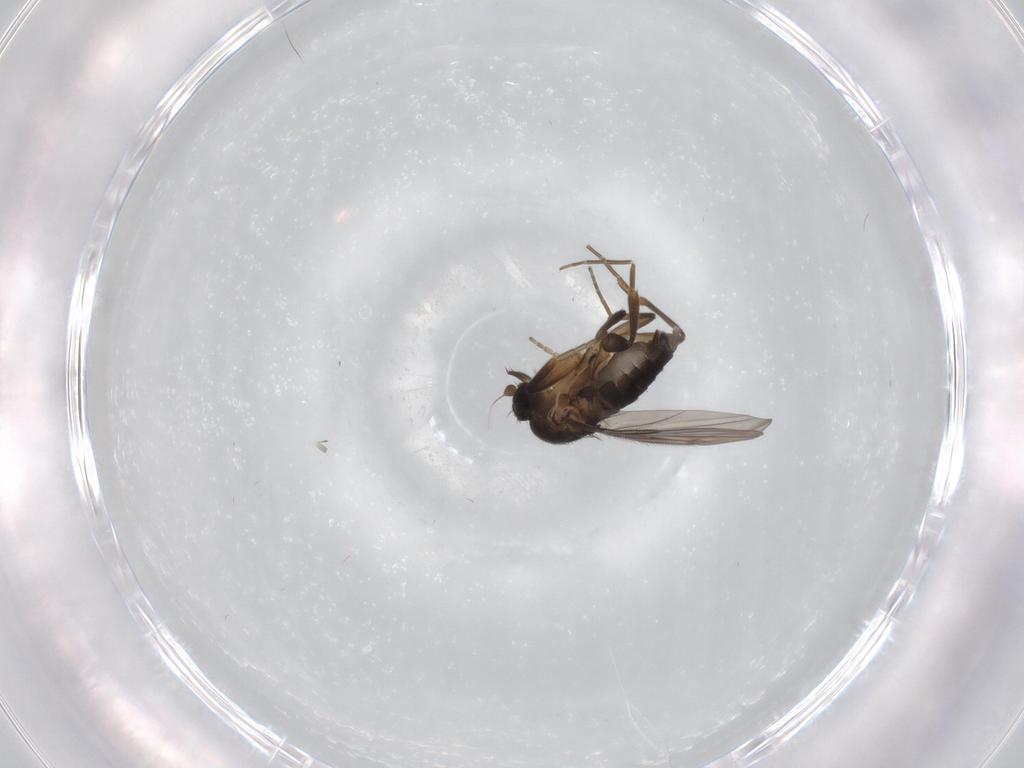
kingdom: Animalia
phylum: Arthropoda
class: Insecta
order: Diptera
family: Phoridae
